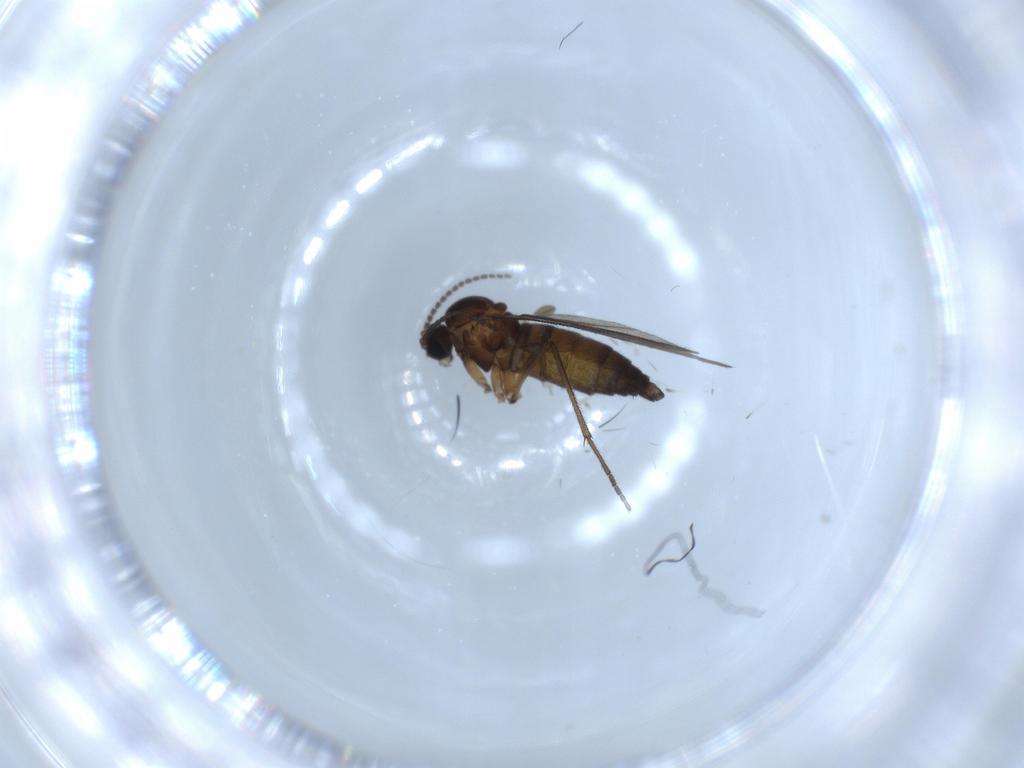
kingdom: Animalia
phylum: Arthropoda
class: Insecta
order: Diptera
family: Sciaridae
